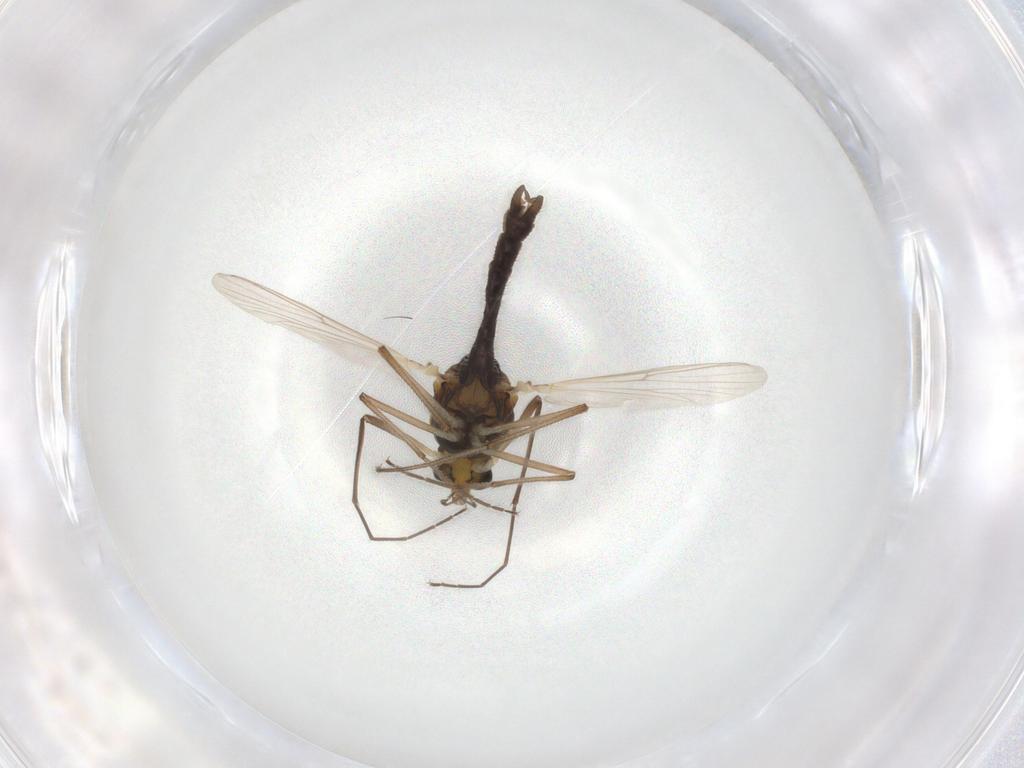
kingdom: Animalia
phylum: Arthropoda
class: Insecta
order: Diptera
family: Chironomidae
